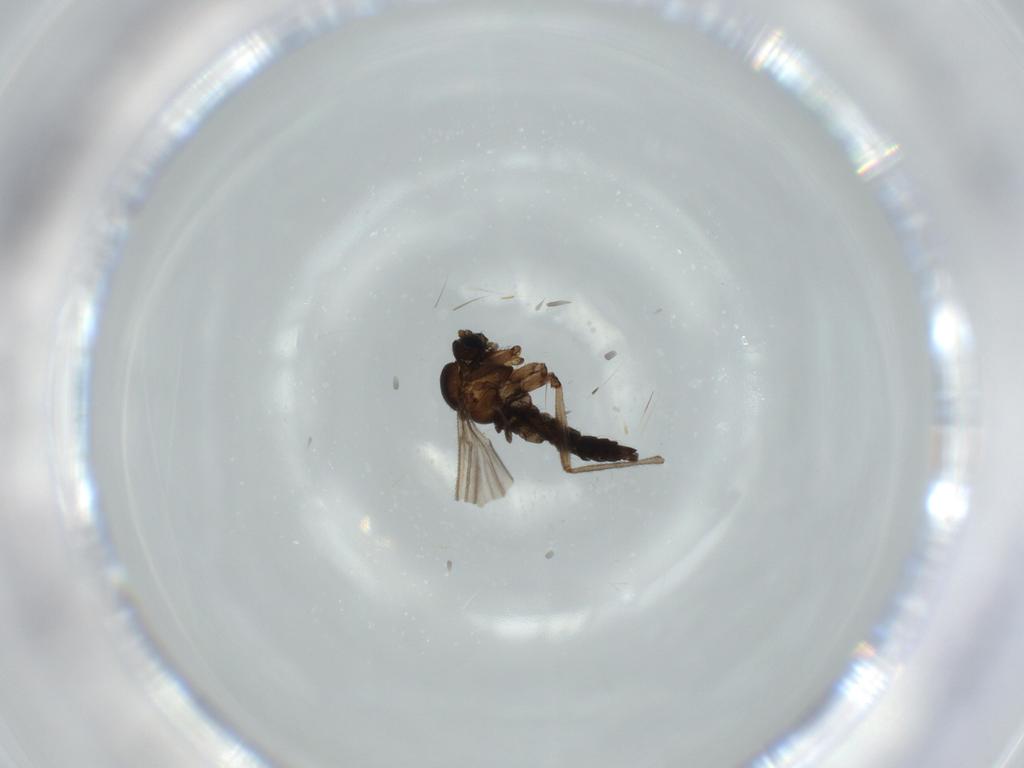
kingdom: Animalia
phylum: Arthropoda
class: Insecta
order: Diptera
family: Sciaridae
